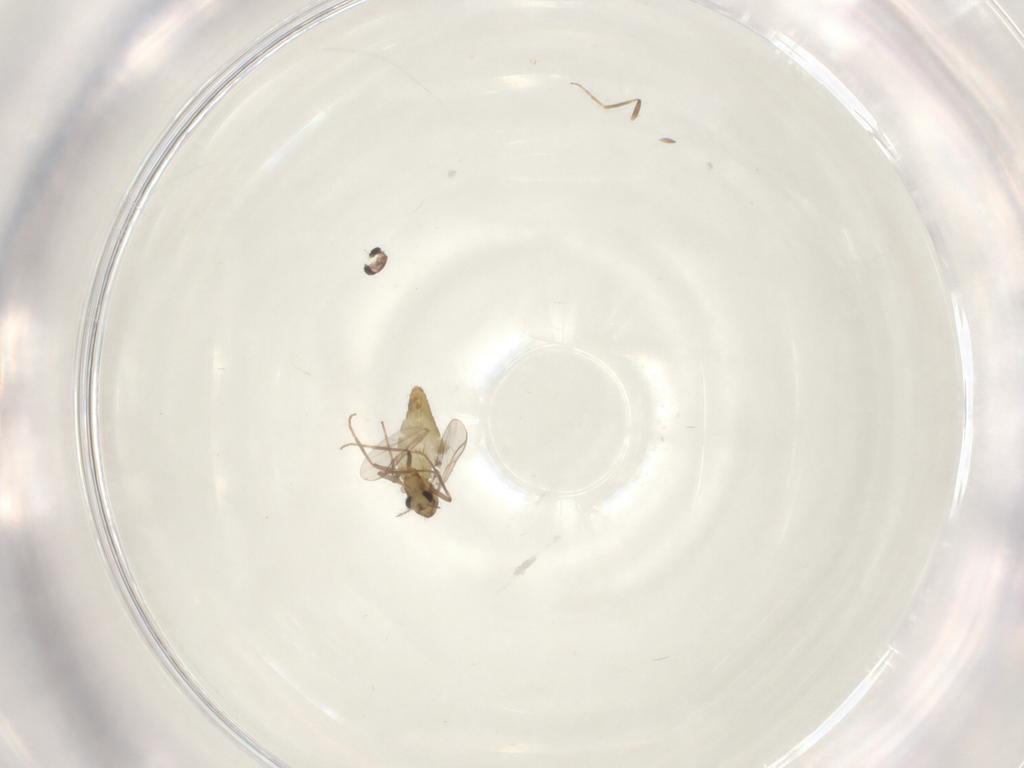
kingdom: Animalia
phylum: Arthropoda
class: Insecta
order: Diptera
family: Chironomidae
